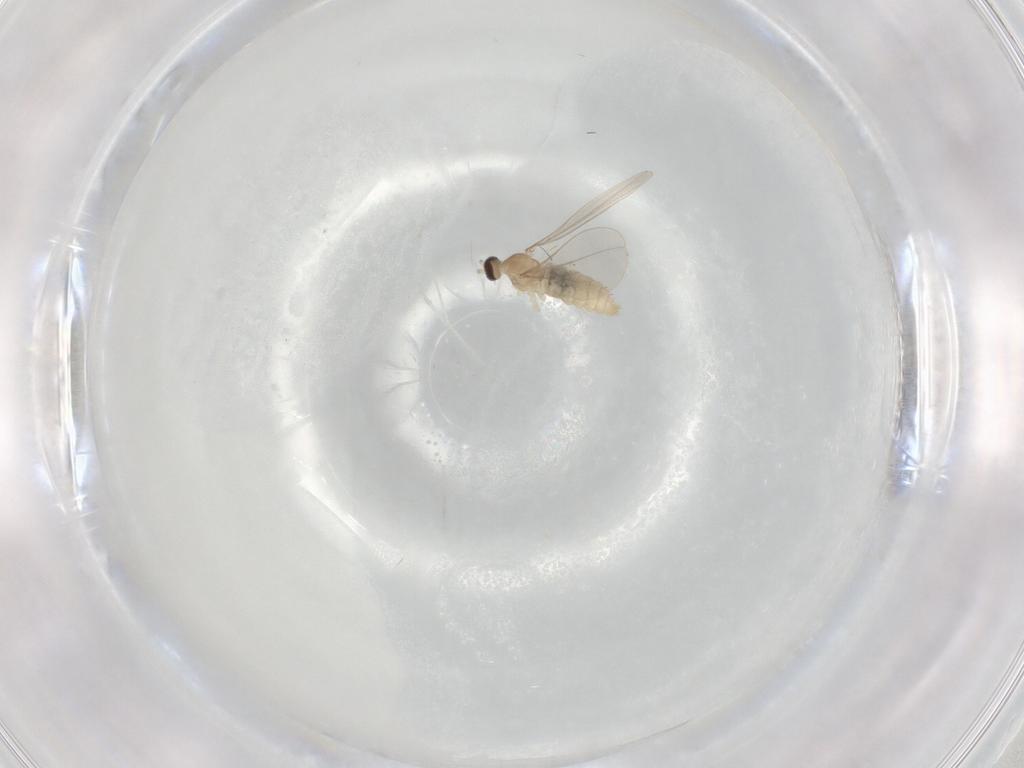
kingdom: Animalia
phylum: Arthropoda
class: Insecta
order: Diptera
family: Cecidomyiidae
